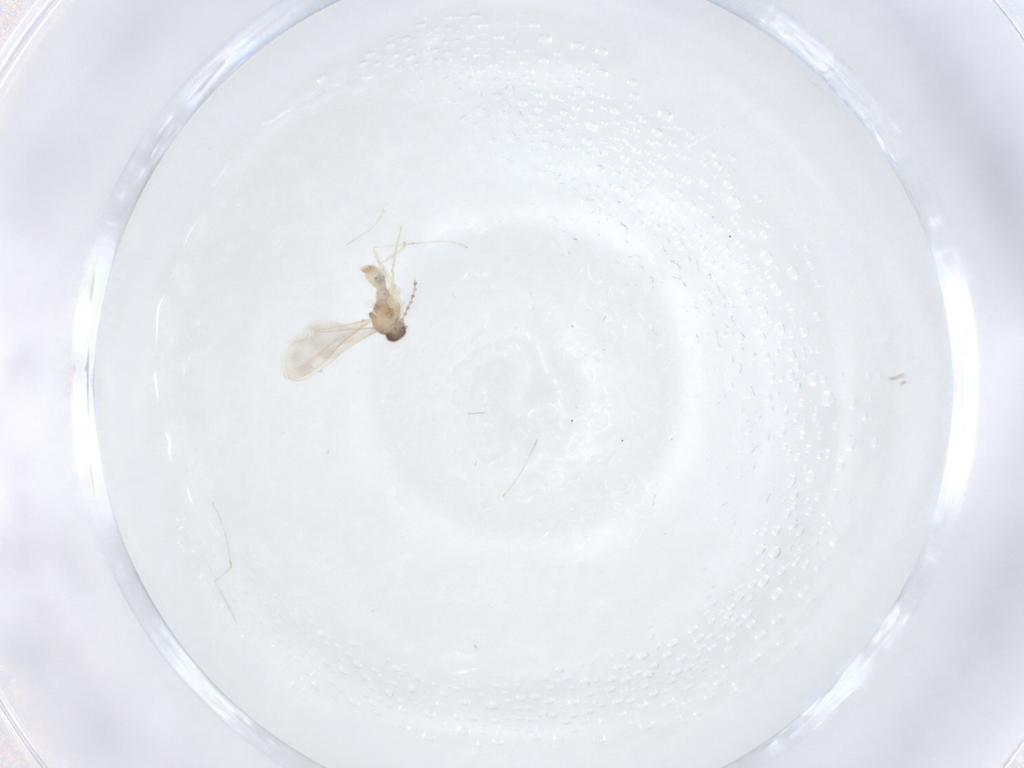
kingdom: Animalia
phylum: Arthropoda
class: Insecta
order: Diptera
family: Cecidomyiidae
